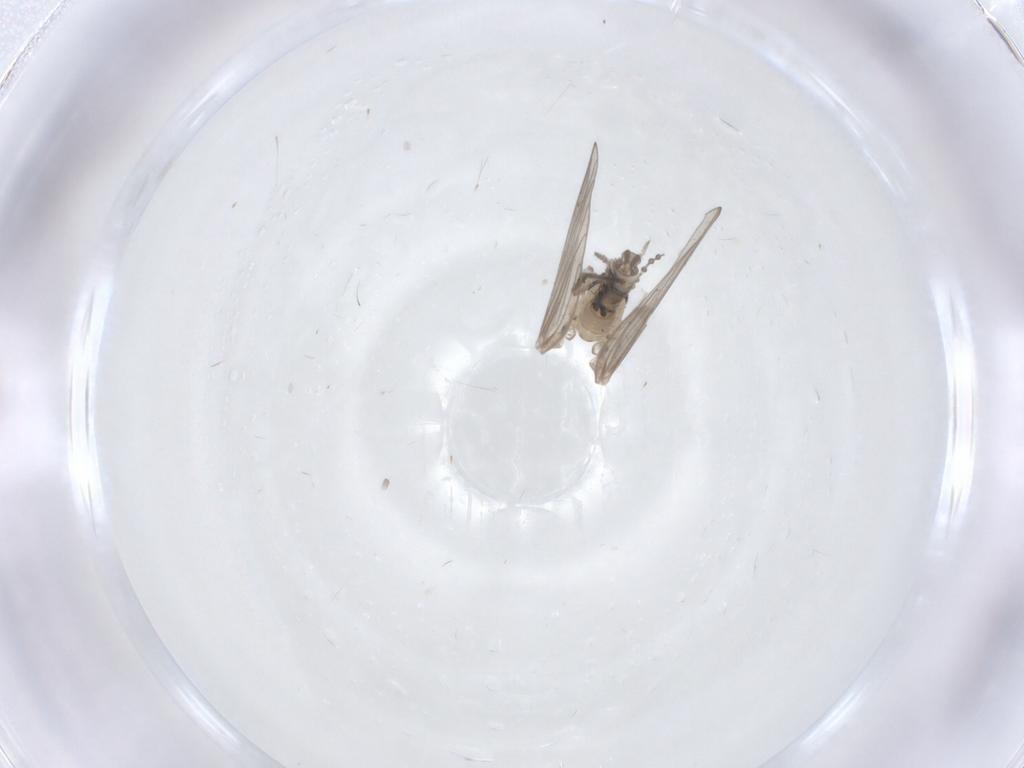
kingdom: Animalia
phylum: Arthropoda
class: Insecta
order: Diptera
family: Psychodidae
